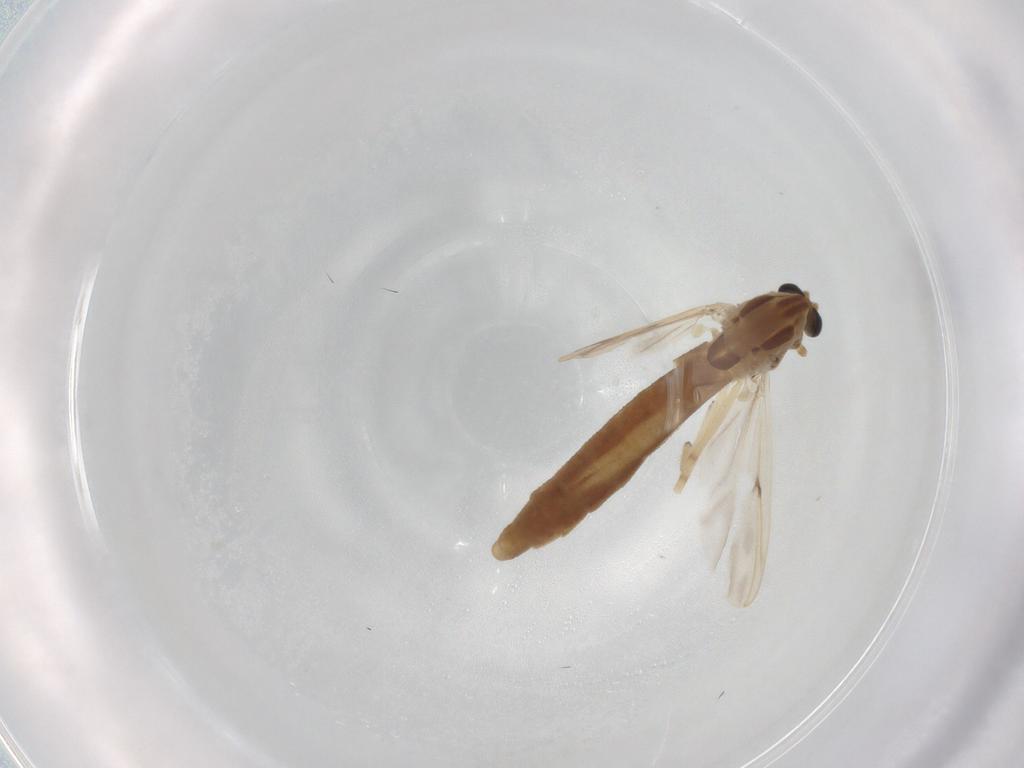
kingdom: Animalia
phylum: Arthropoda
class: Insecta
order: Diptera
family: Chironomidae
